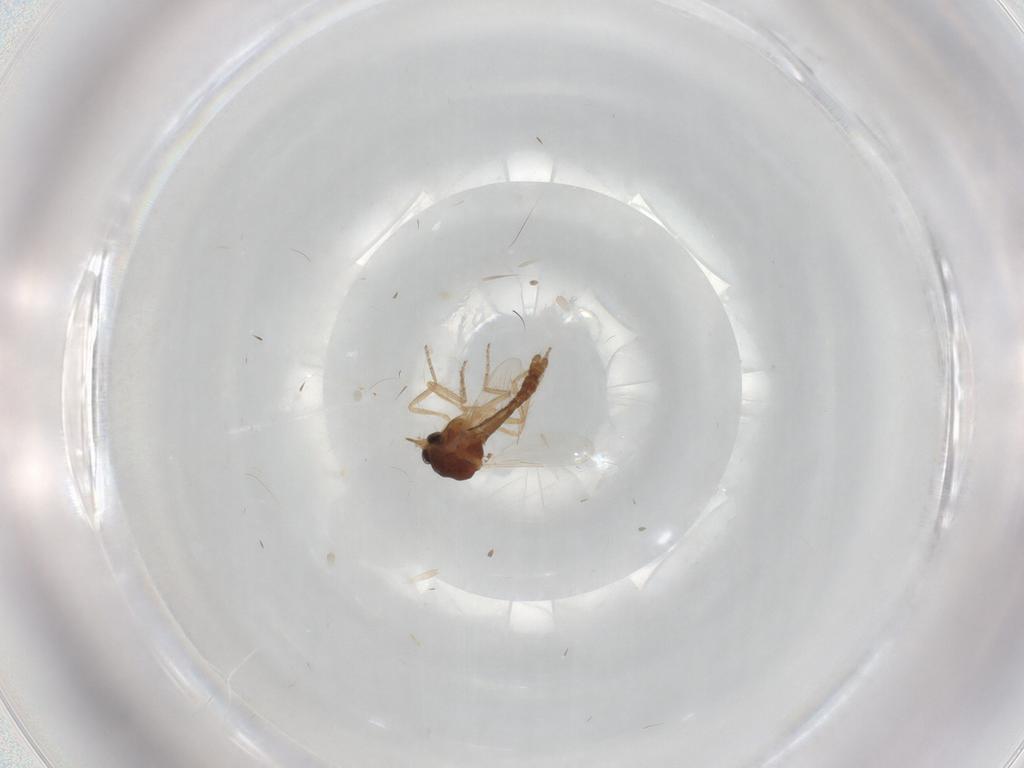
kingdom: Animalia
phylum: Arthropoda
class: Insecta
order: Diptera
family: Ceratopogonidae
